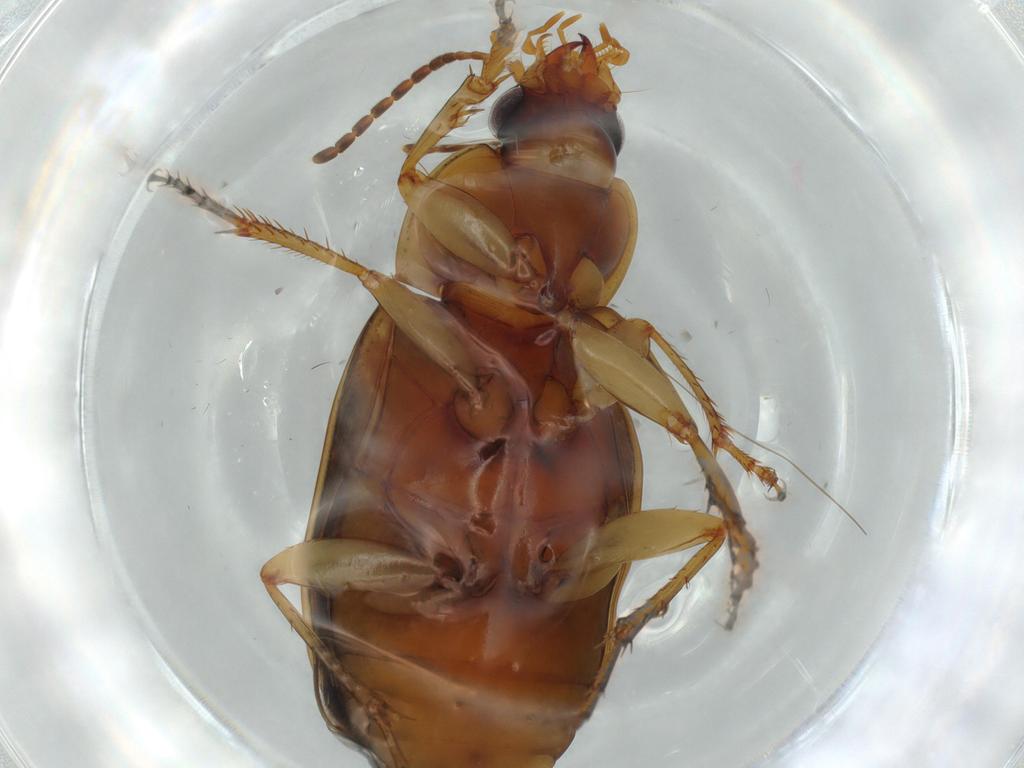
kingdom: Animalia
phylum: Arthropoda
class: Insecta
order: Coleoptera
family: Carabidae
